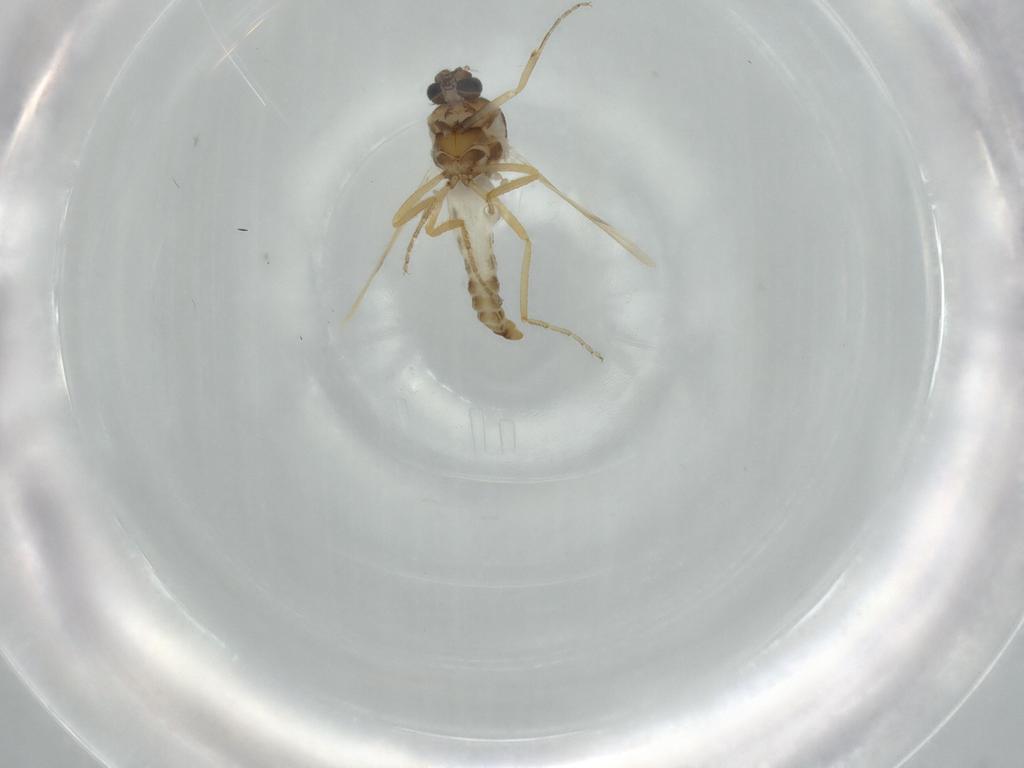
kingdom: Animalia
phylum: Arthropoda
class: Insecta
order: Diptera
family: Ceratopogonidae
